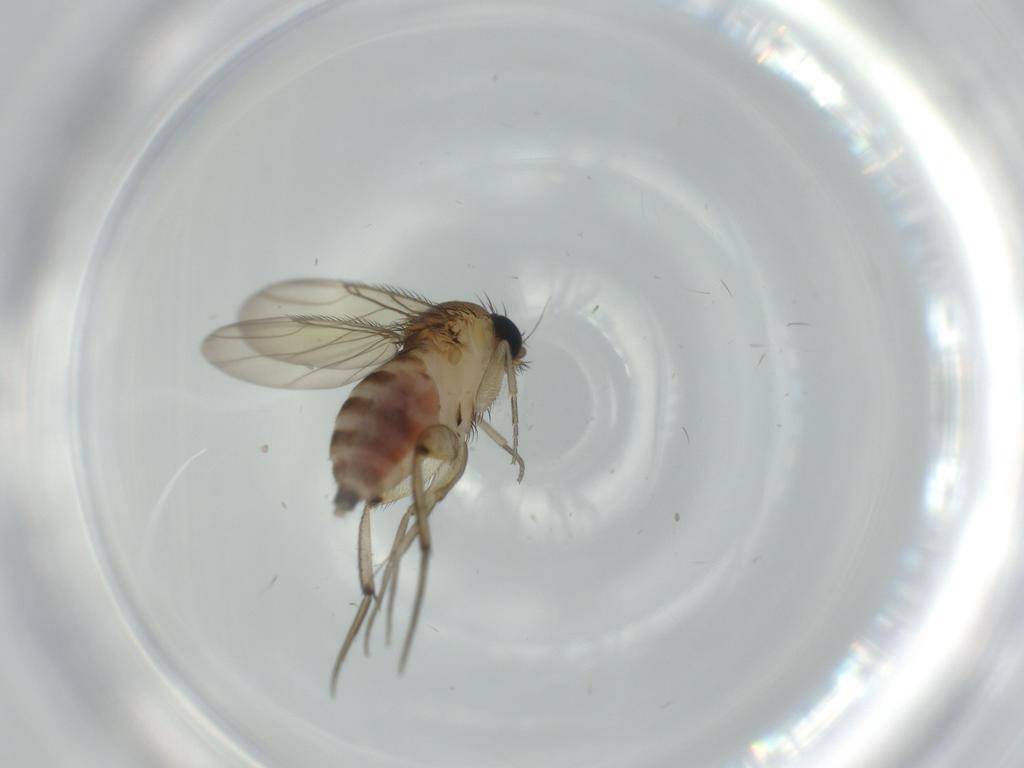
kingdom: Animalia
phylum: Arthropoda
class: Insecta
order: Diptera
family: Phoridae
